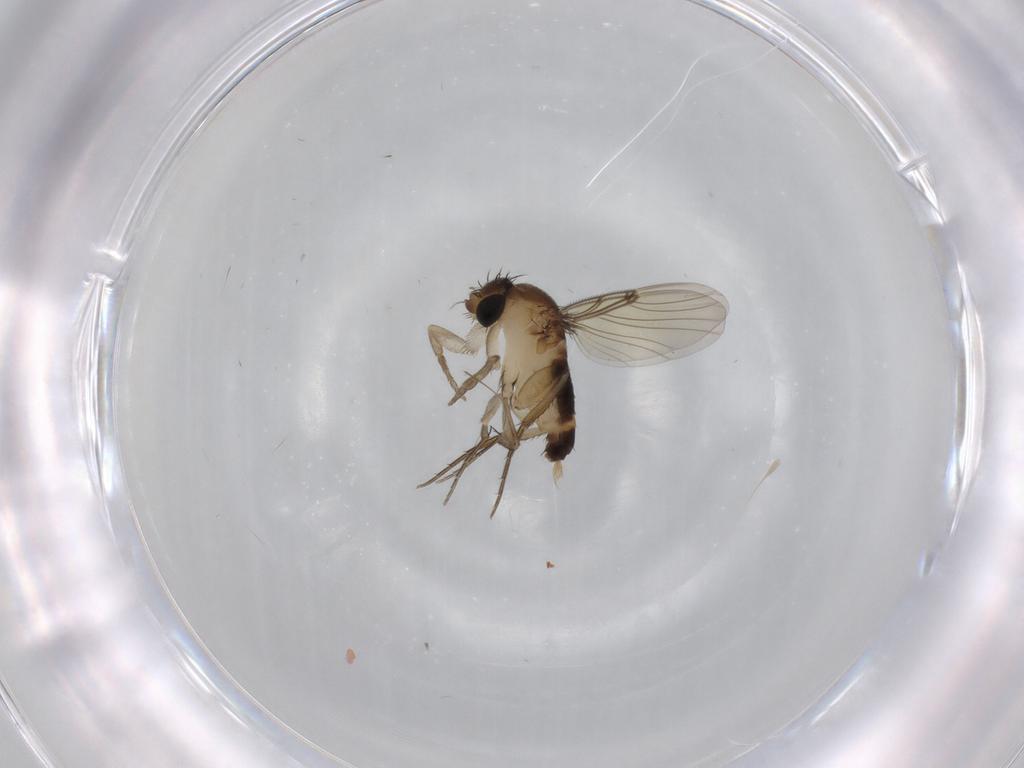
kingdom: Animalia
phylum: Arthropoda
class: Insecta
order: Diptera
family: Phoridae
